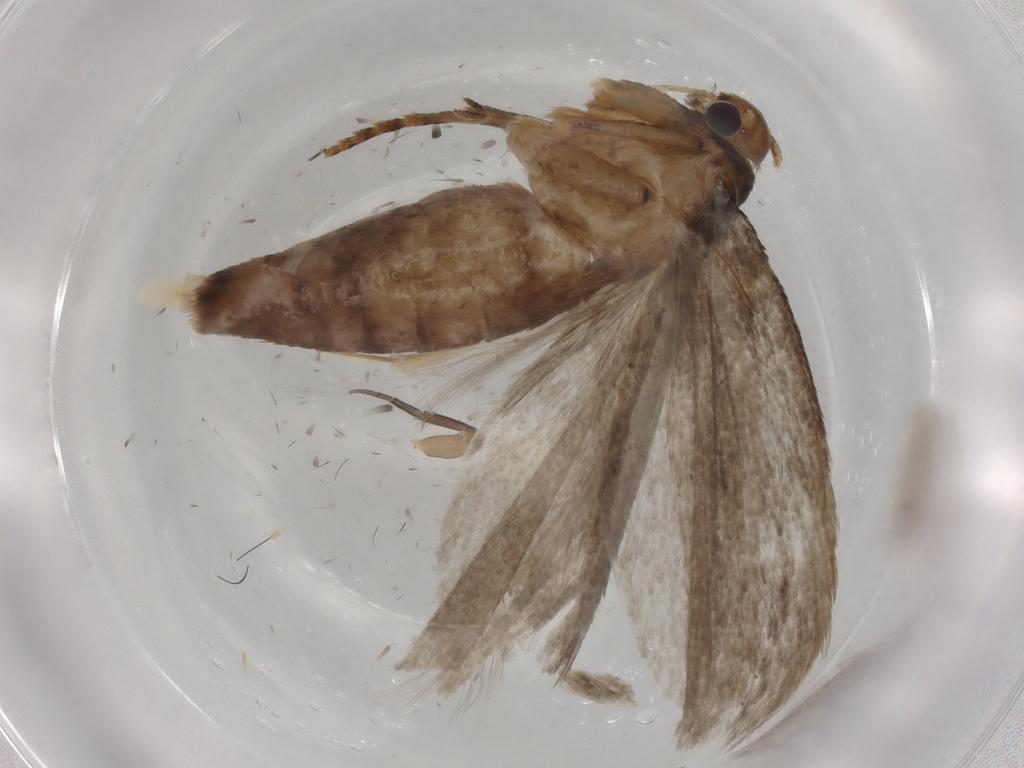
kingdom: Animalia
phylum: Arthropoda
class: Insecta
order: Lepidoptera
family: Gelechiidae
